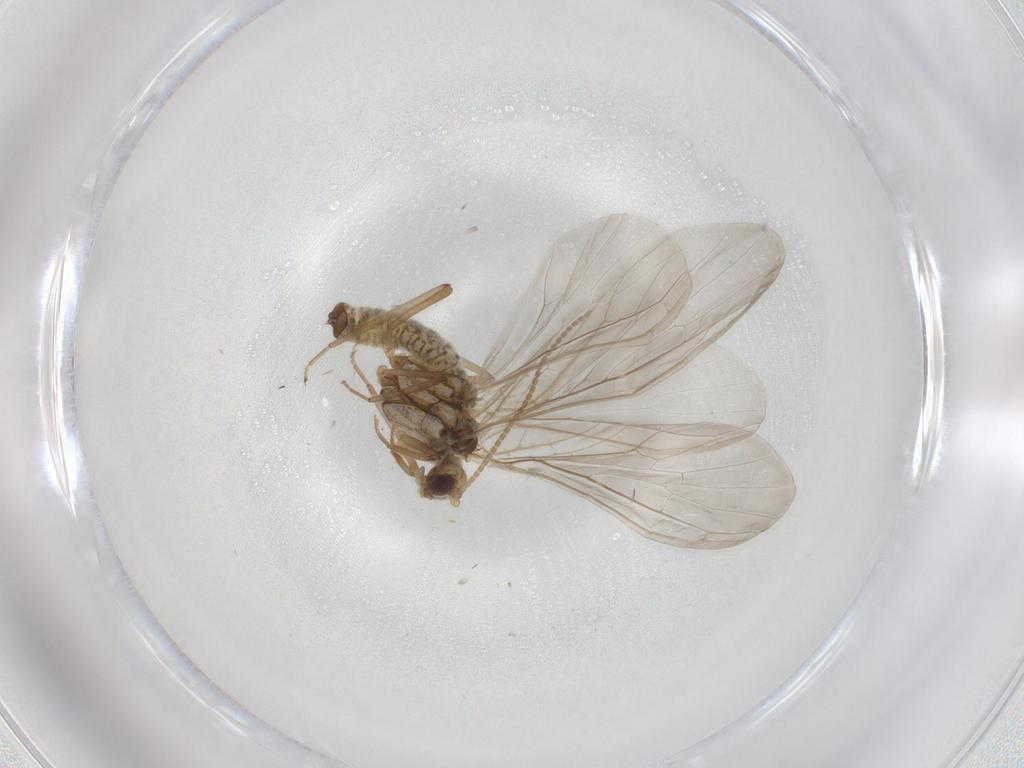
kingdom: Animalia
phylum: Arthropoda
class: Insecta
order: Neuroptera
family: Coniopterygidae
